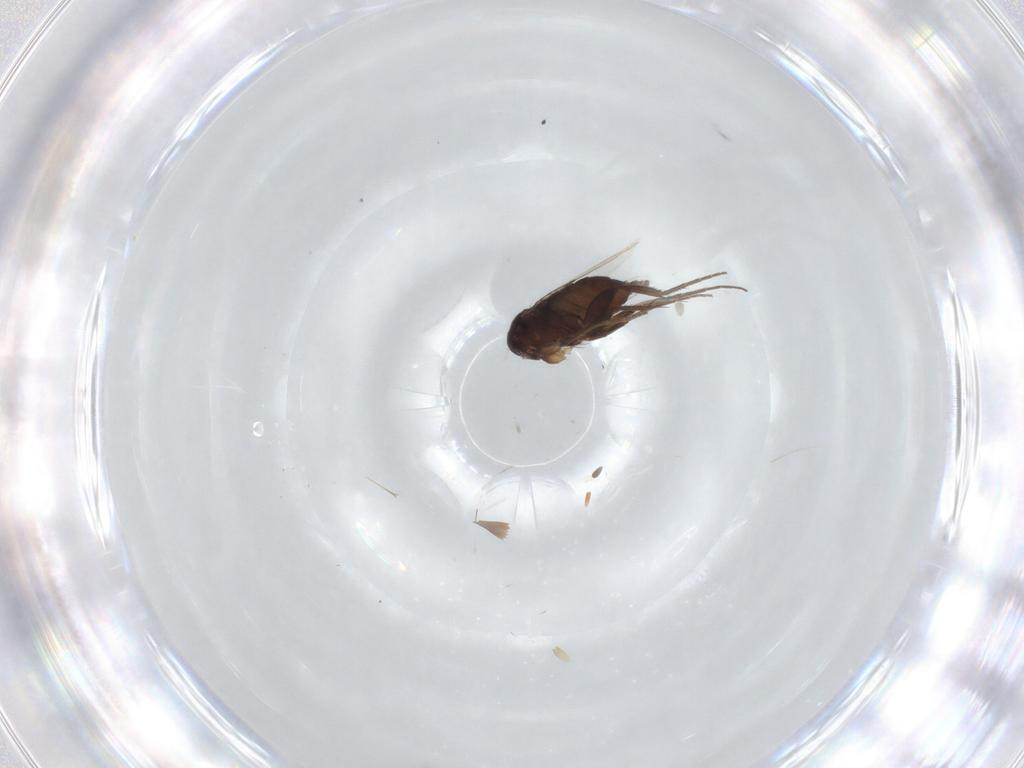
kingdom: Animalia
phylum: Arthropoda
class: Insecta
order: Diptera
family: Phoridae
